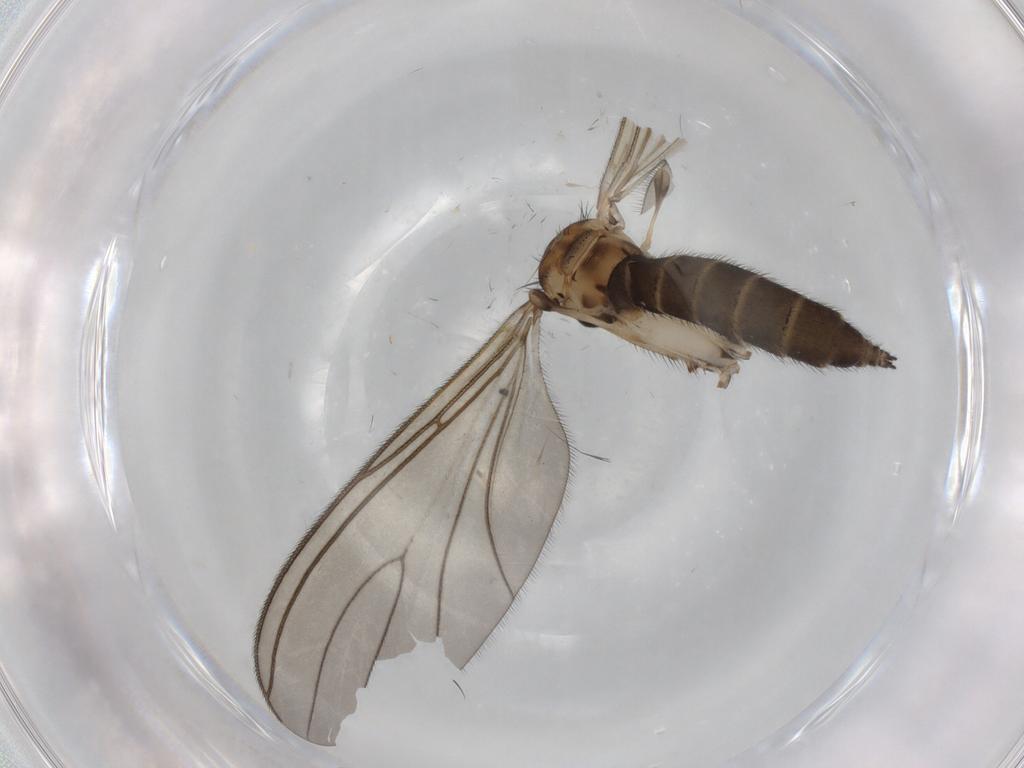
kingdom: Animalia
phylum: Arthropoda
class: Insecta
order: Diptera
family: Sciaridae
